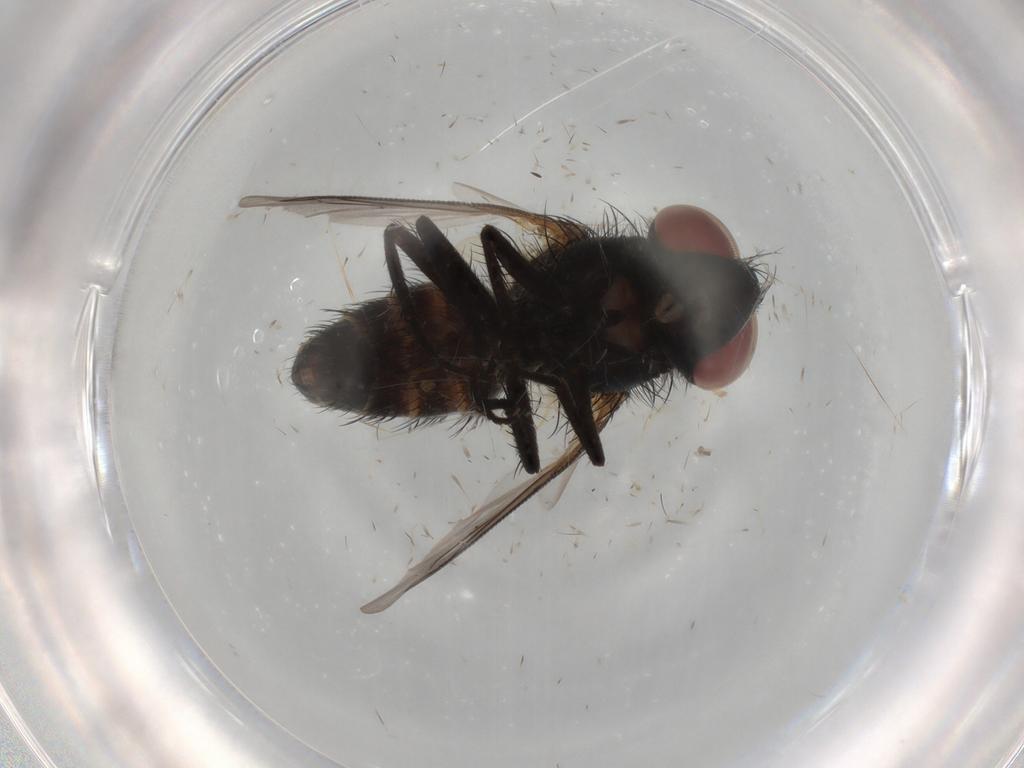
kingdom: Animalia
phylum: Arthropoda
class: Insecta
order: Diptera
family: Sarcophagidae
